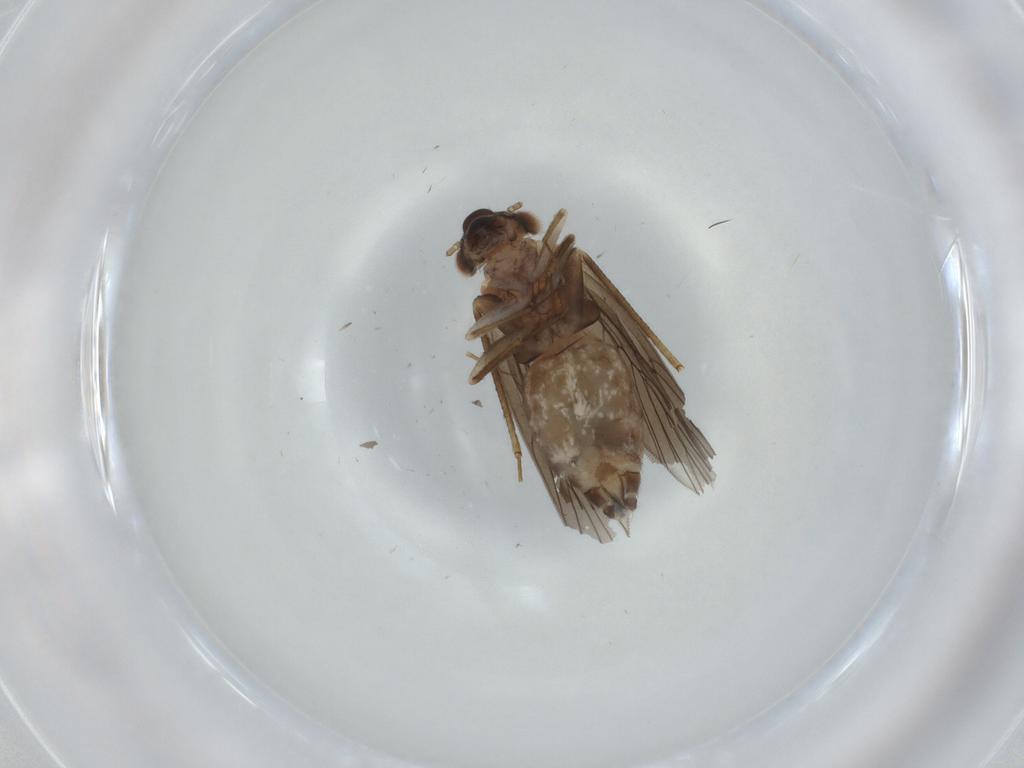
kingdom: Animalia
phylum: Arthropoda
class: Insecta
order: Psocodea
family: Lepidopsocidae
